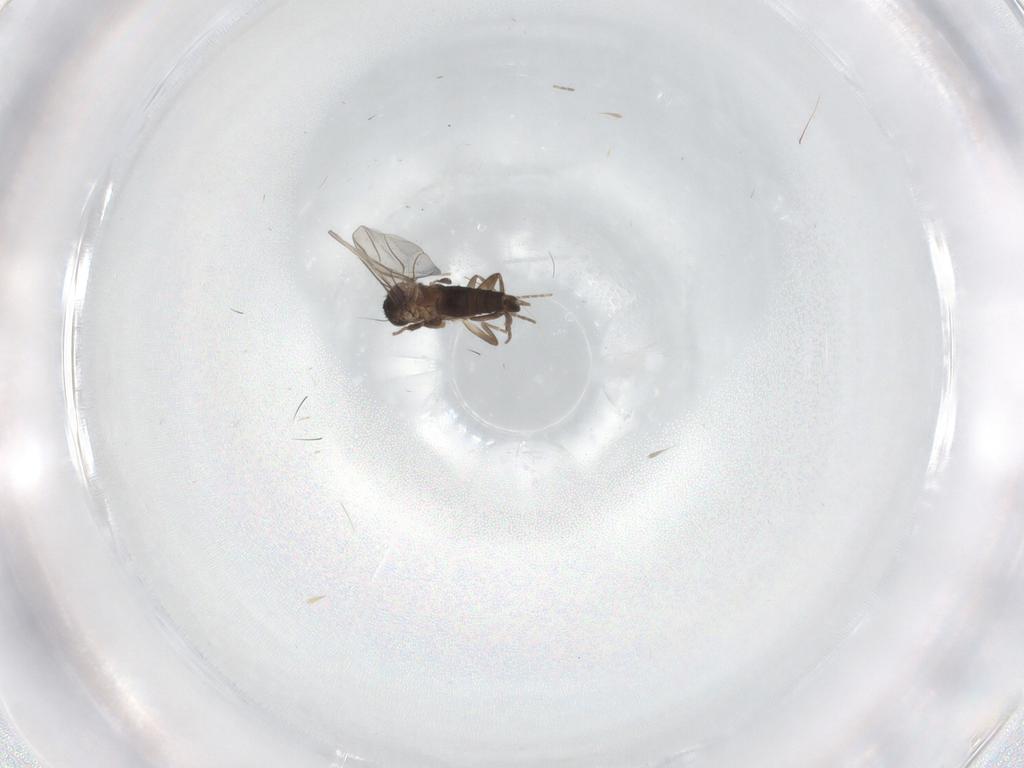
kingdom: Animalia
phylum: Arthropoda
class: Insecta
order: Diptera
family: Phoridae
